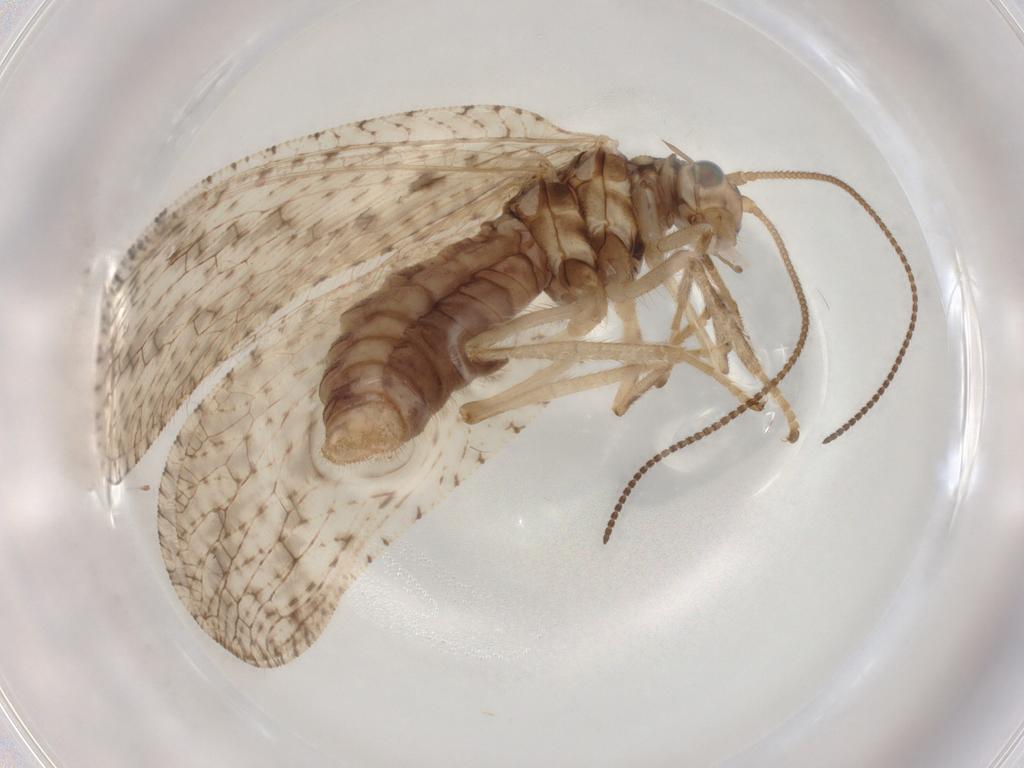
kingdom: Animalia
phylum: Arthropoda
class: Insecta
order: Neuroptera
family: Hemerobiidae
